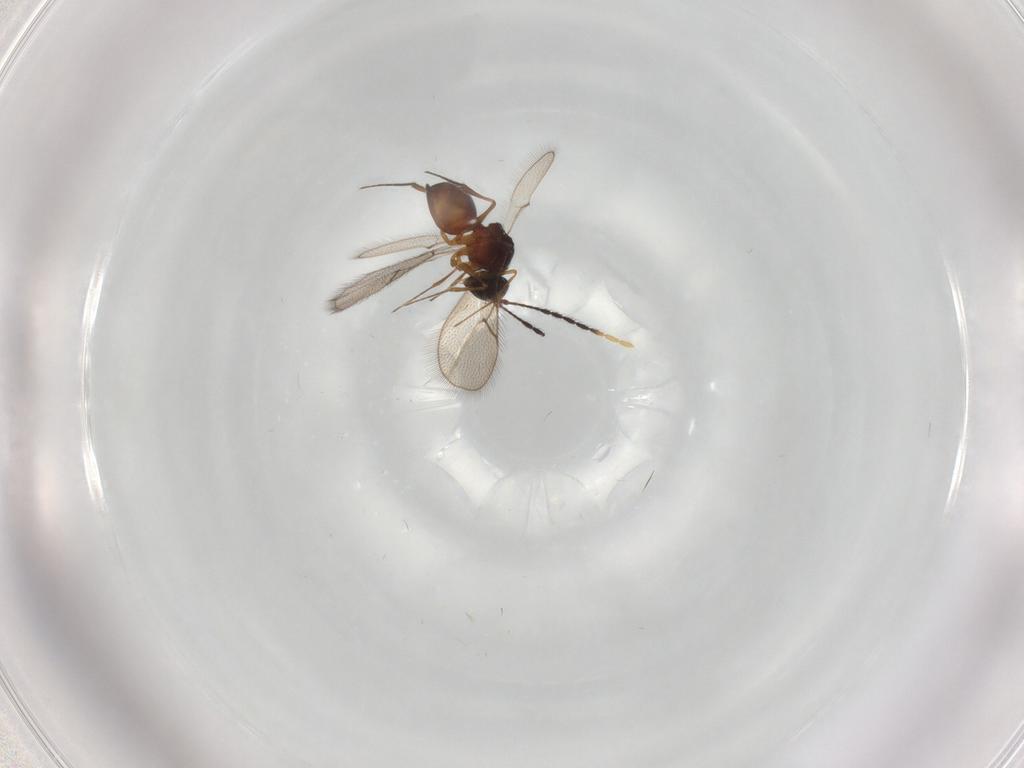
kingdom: Animalia
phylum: Arthropoda
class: Insecta
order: Hymenoptera
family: Figitidae
